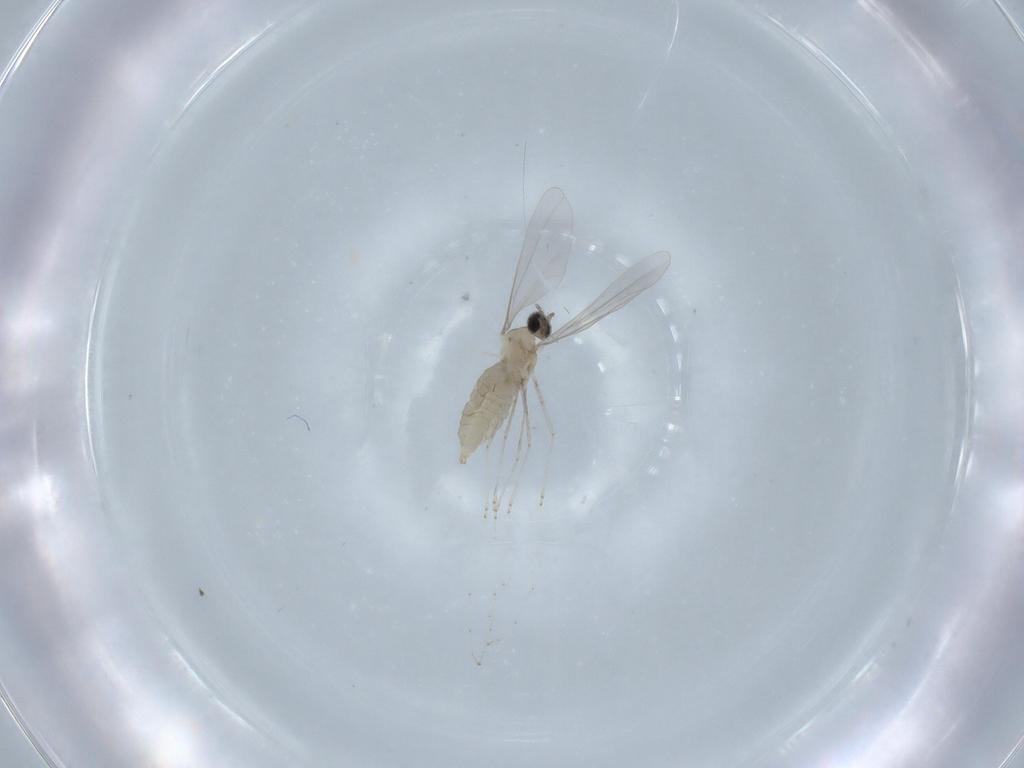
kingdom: Animalia
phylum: Arthropoda
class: Insecta
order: Diptera
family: Cecidomyiidae
